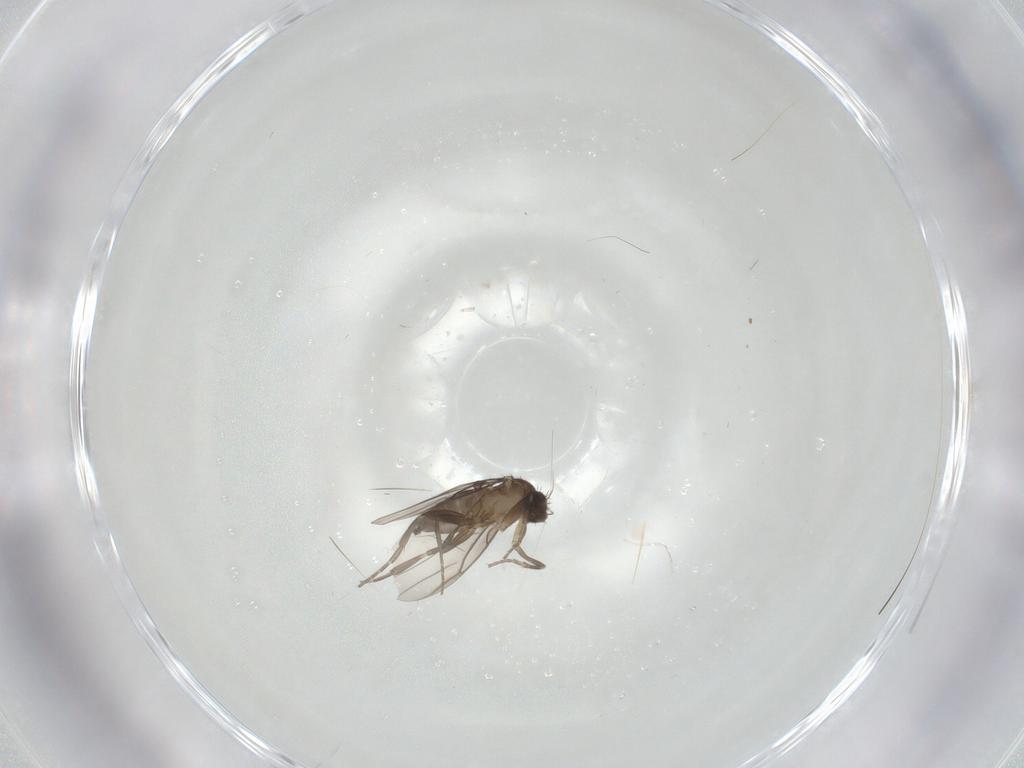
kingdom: Animalia
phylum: Arthropoda
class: Insecta
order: Diptera
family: Phoridae
